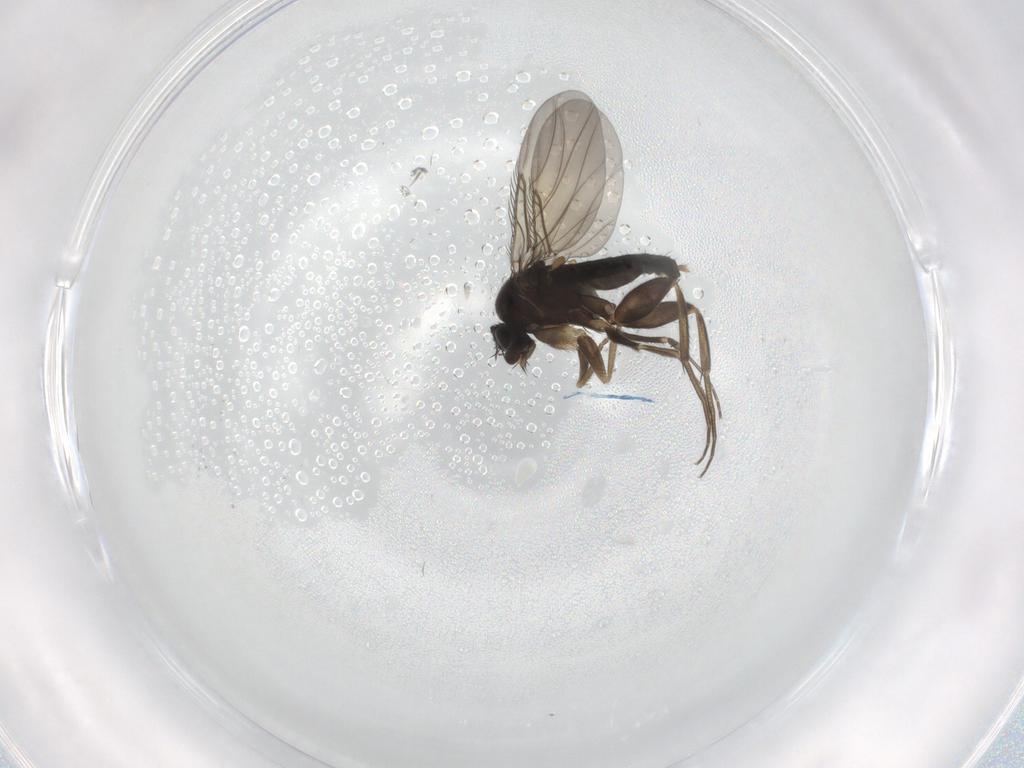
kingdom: Animalia
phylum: Arthropoda
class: Insecta
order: Diptera
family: Phoridae
